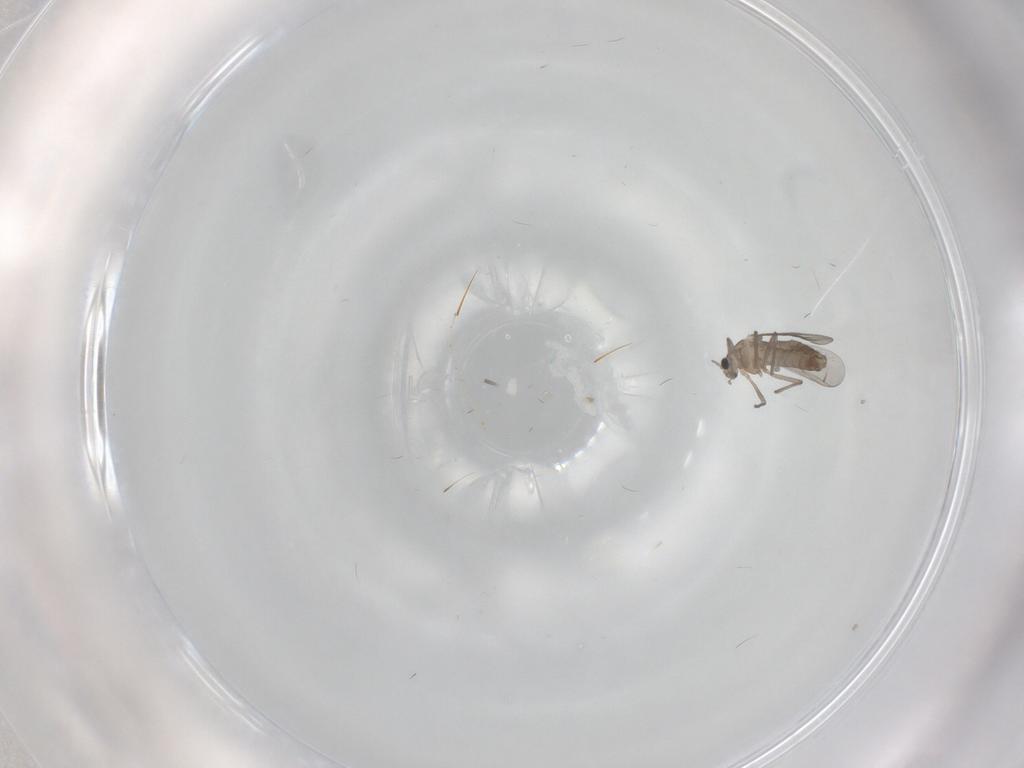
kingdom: Animalia
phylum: Arthropoda
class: Insecta
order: Diptera
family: Chironomidae
